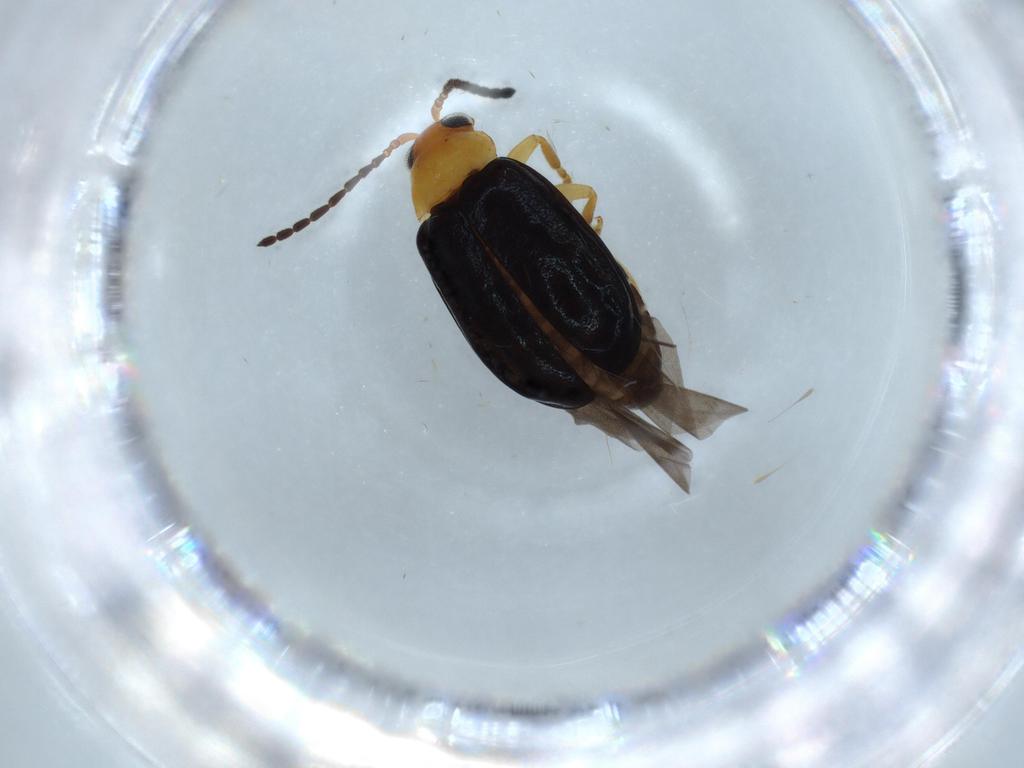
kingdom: Animalia
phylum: Arthropoda
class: Insecta
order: Coleoptera
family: Chrysomelidae
